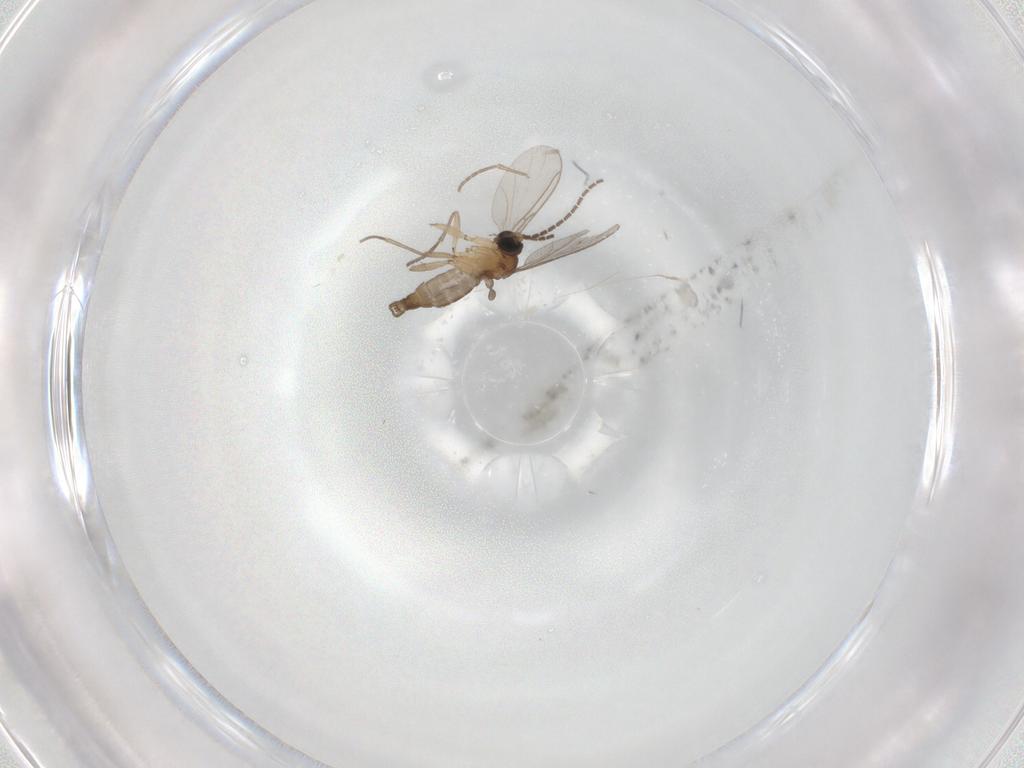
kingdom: Animalia
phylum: Arthropoda
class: Insecta
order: Diptera
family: Sciaridae
